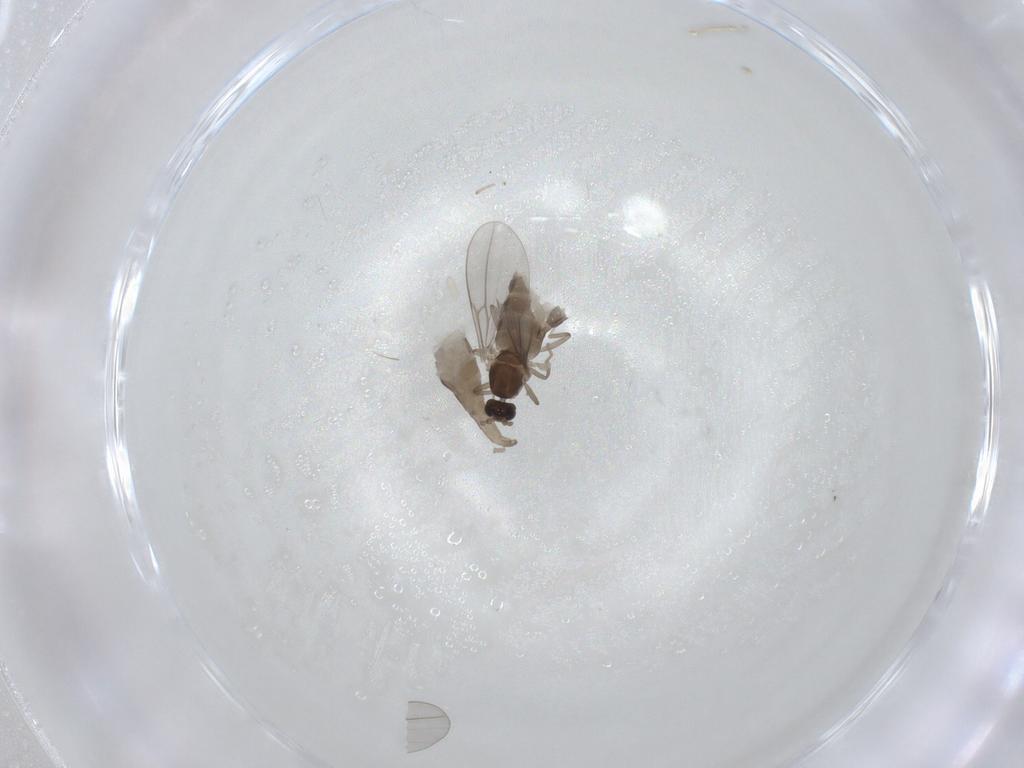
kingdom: Animalia
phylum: Arthropoda
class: Insecta
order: Diptera
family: Cecidomyiidae
